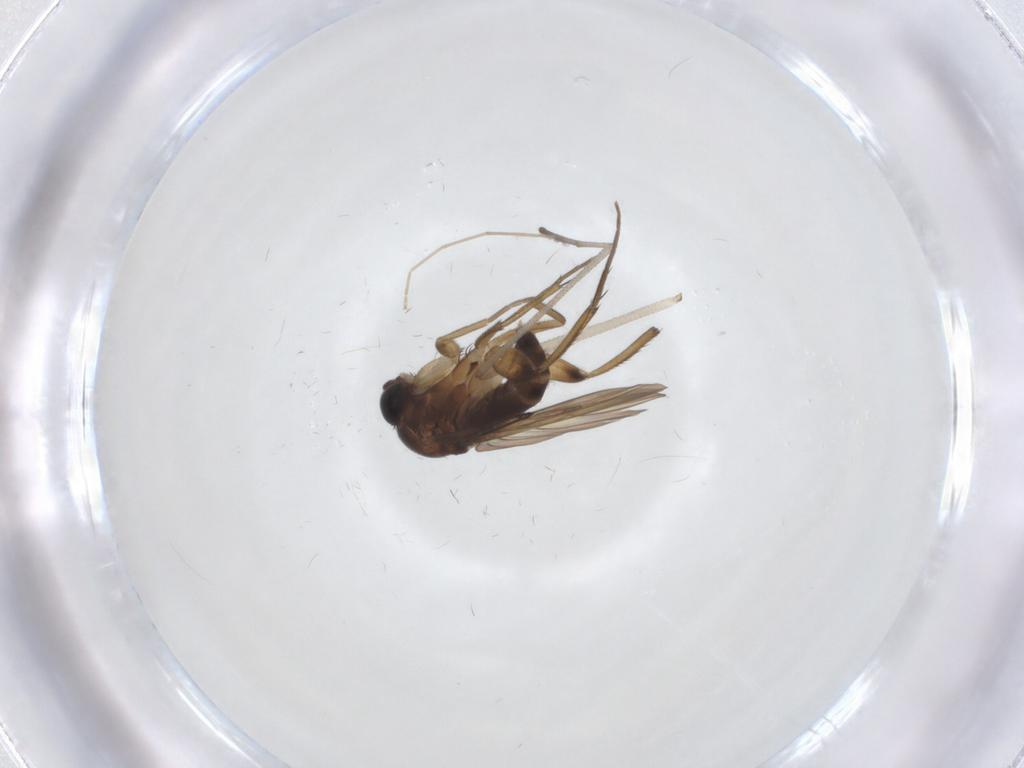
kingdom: Animalia
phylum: Arthropoda
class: Insecta
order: Diptera
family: Phoridae
